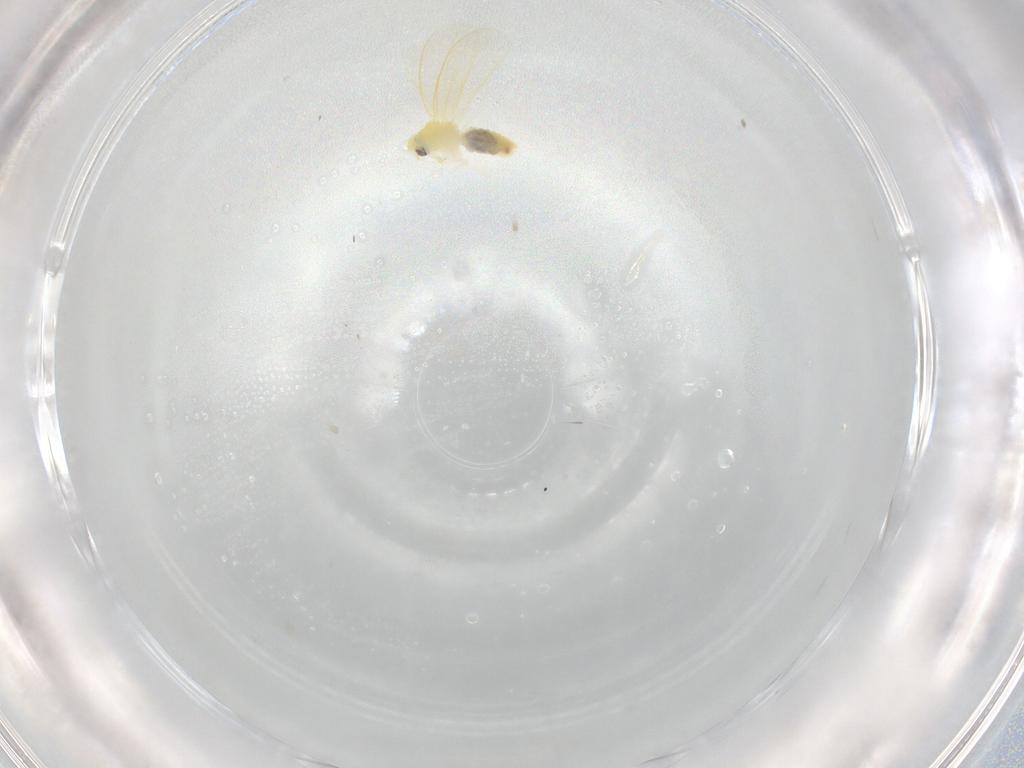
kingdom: Animalia
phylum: Arthropoda
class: Insecta
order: Hemiptera
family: Aleyrodidae
